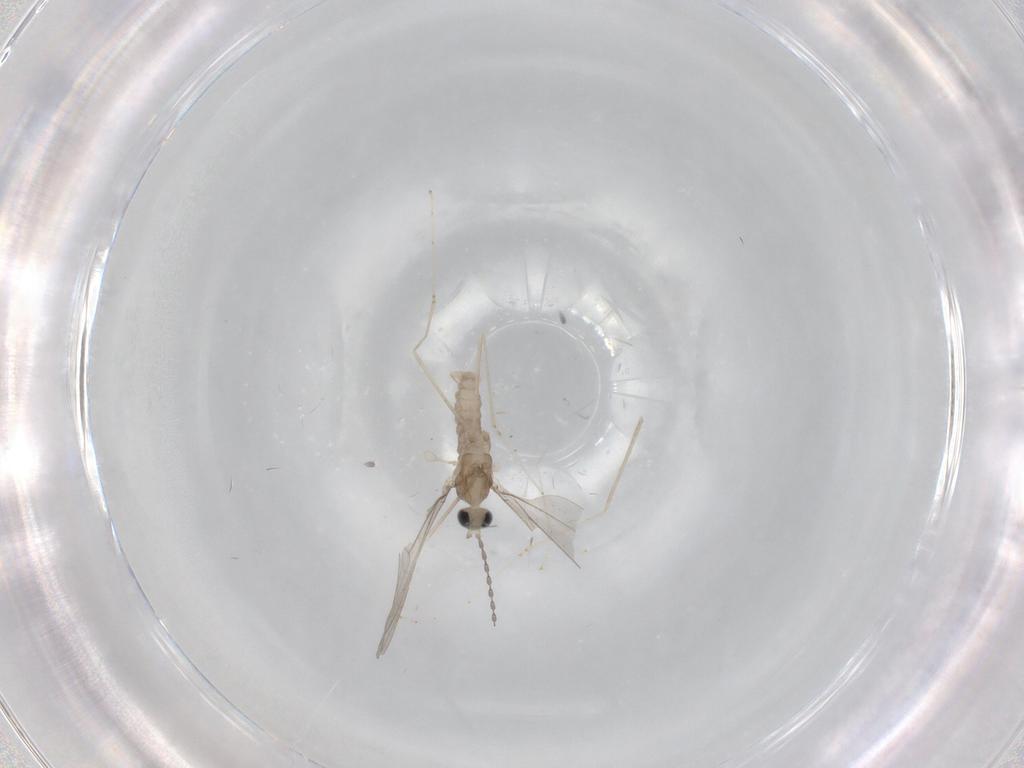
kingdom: Animalia
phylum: Arthropoda
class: Insecta
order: Diptera
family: Cecidomyiidae
